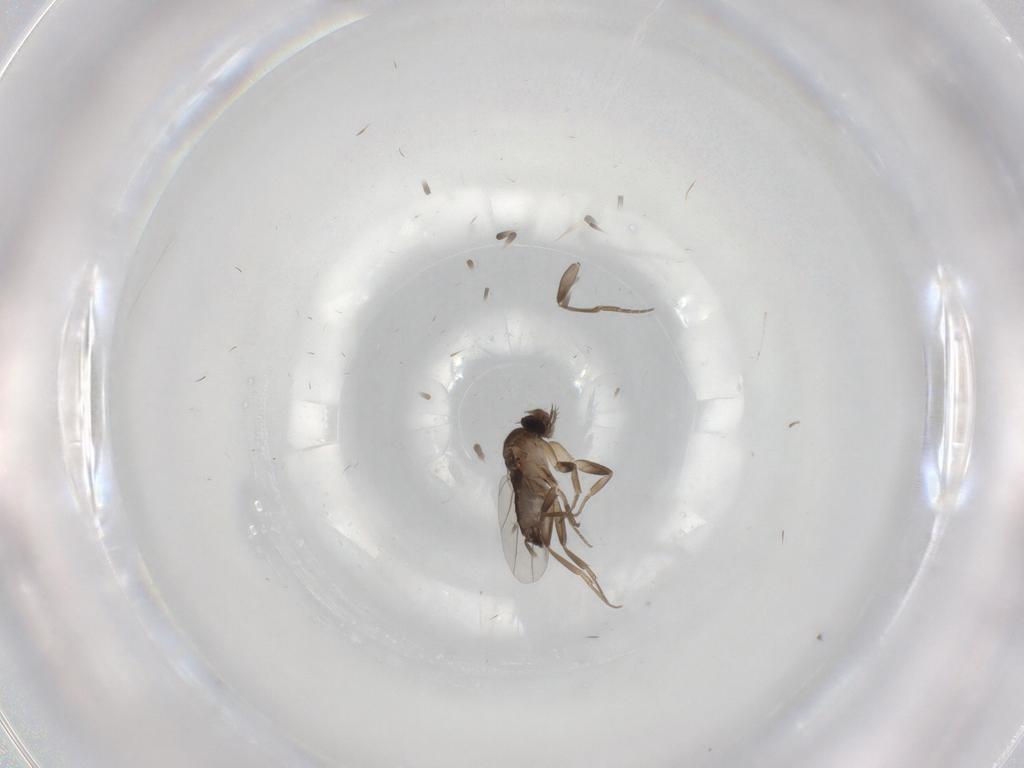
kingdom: Animalia
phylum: Arthropoda
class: Insecta
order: Diptera
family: Phoridae
